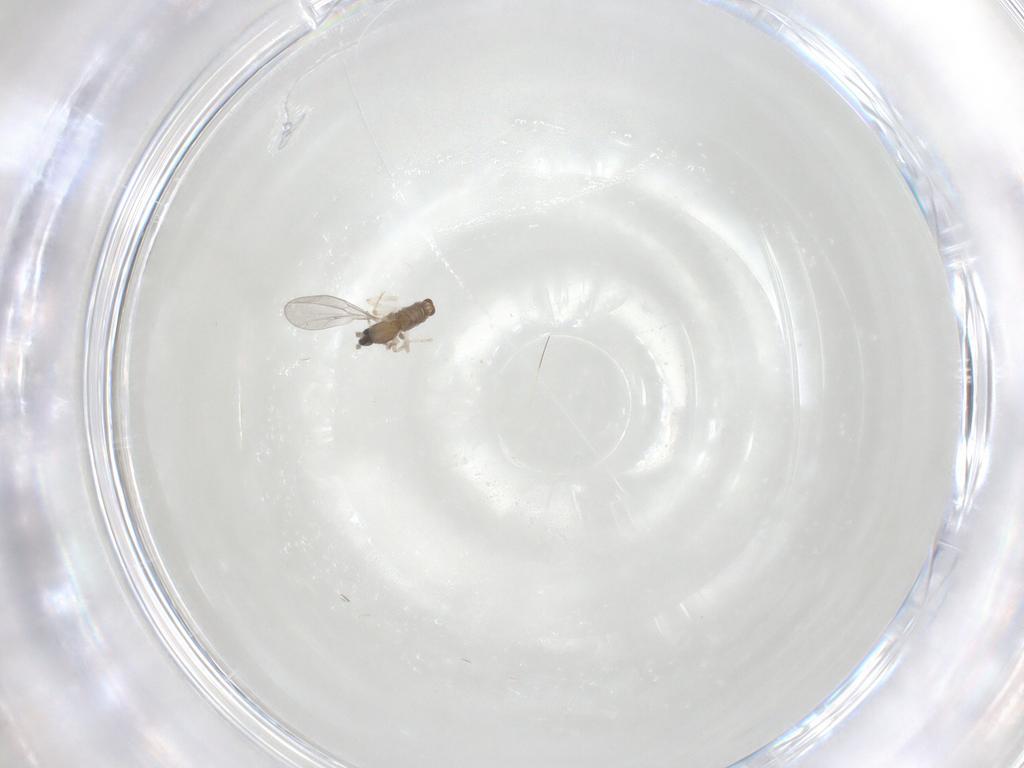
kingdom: Animalia
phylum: Arthropoda
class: Insecta
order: Diptera
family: Cecidomyiidae
